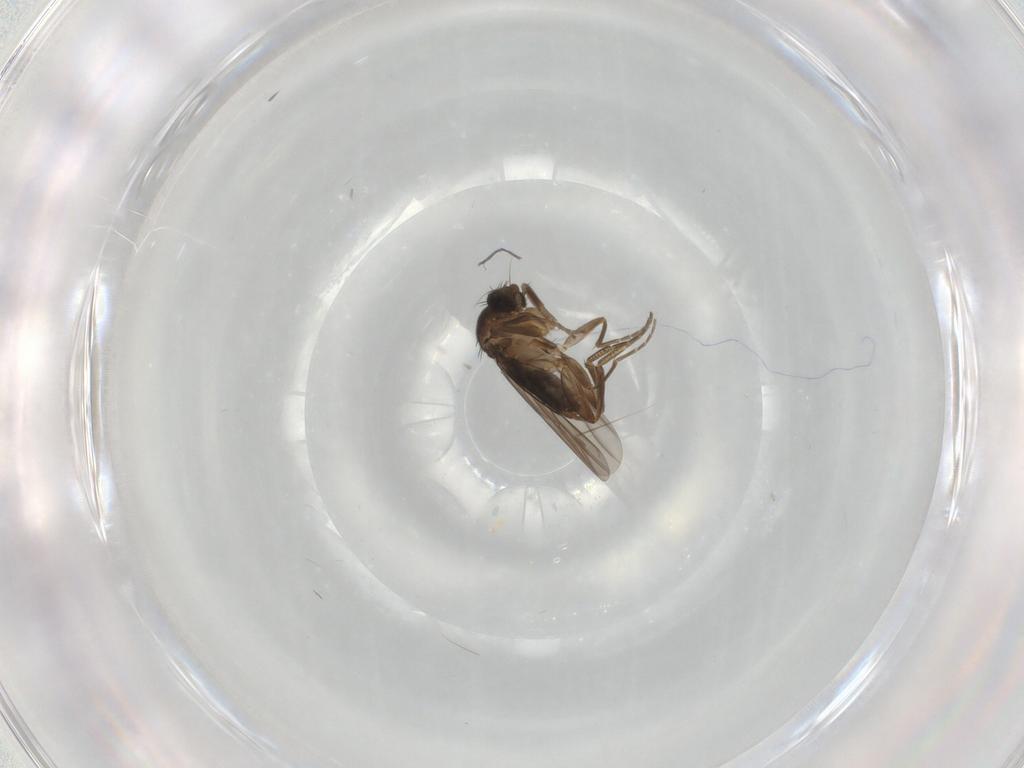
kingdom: Animalia
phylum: Arthropoda
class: Insecta
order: Diptera
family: Phoridae
